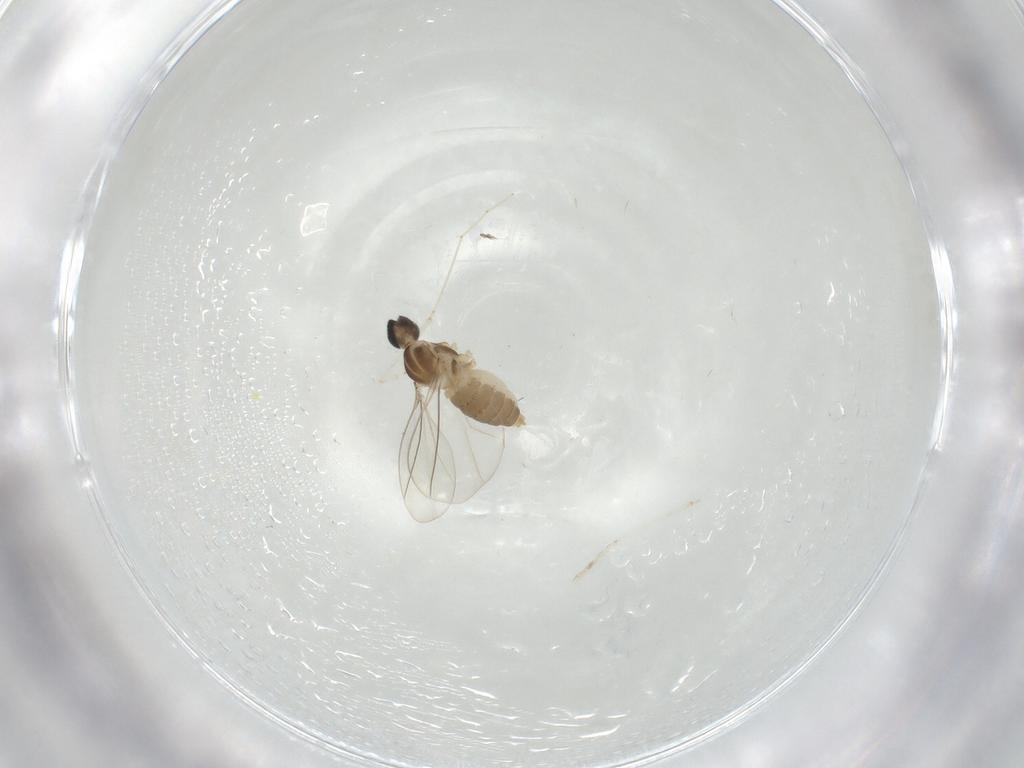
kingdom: Animalia
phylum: Arthropoda
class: Insecta
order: Diptera
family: Cecidomyiidae
